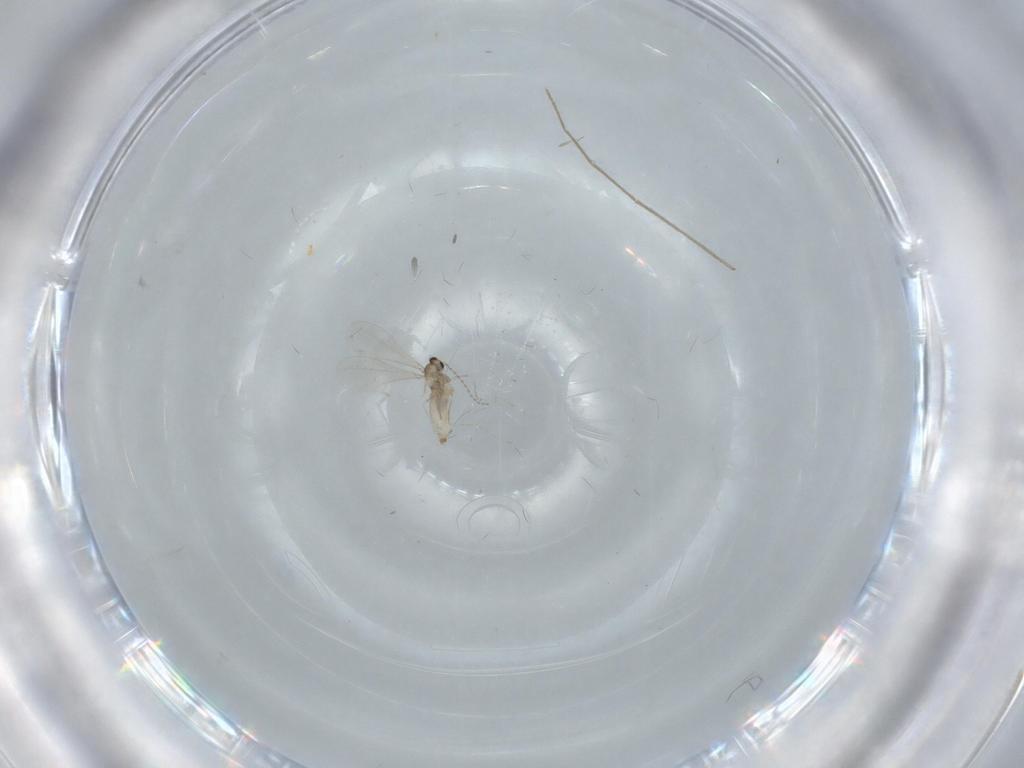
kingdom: Animalia
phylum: Arthropoda
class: Insecta
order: Diptera
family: Cecidomyiidae
